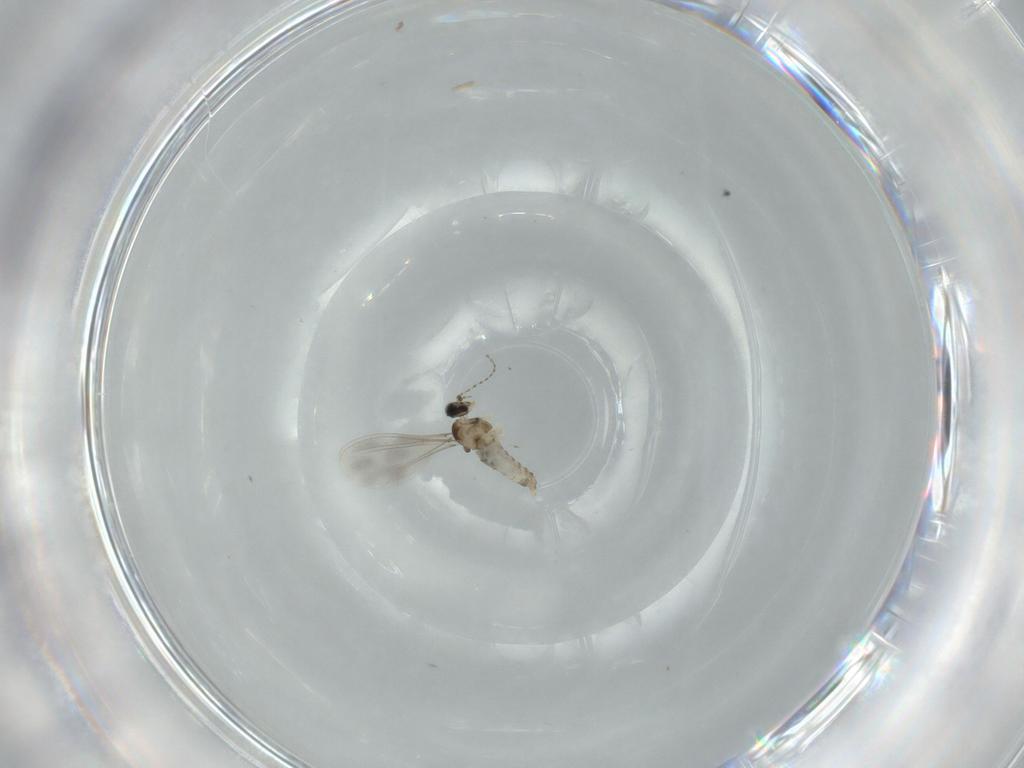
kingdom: Animalia
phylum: Arthropoda
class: Insecta
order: Diptera
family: Cecidomyiidae
